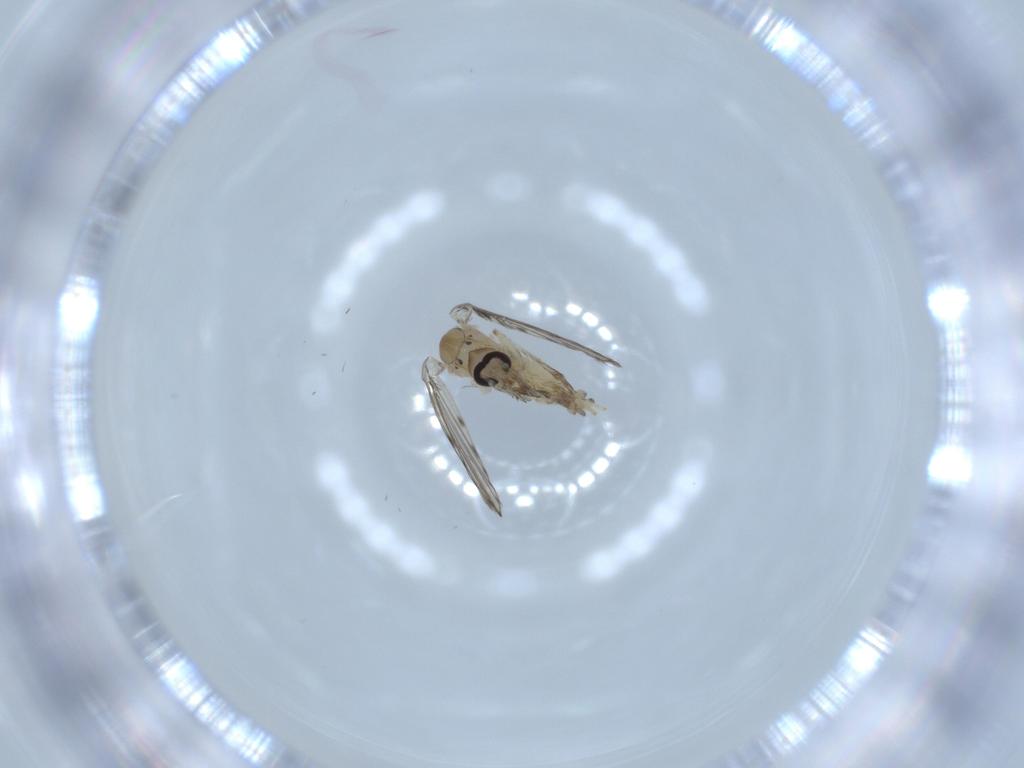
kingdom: Animalia
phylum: Arthropoda
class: Insecta
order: Diptera
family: Psychodidae
